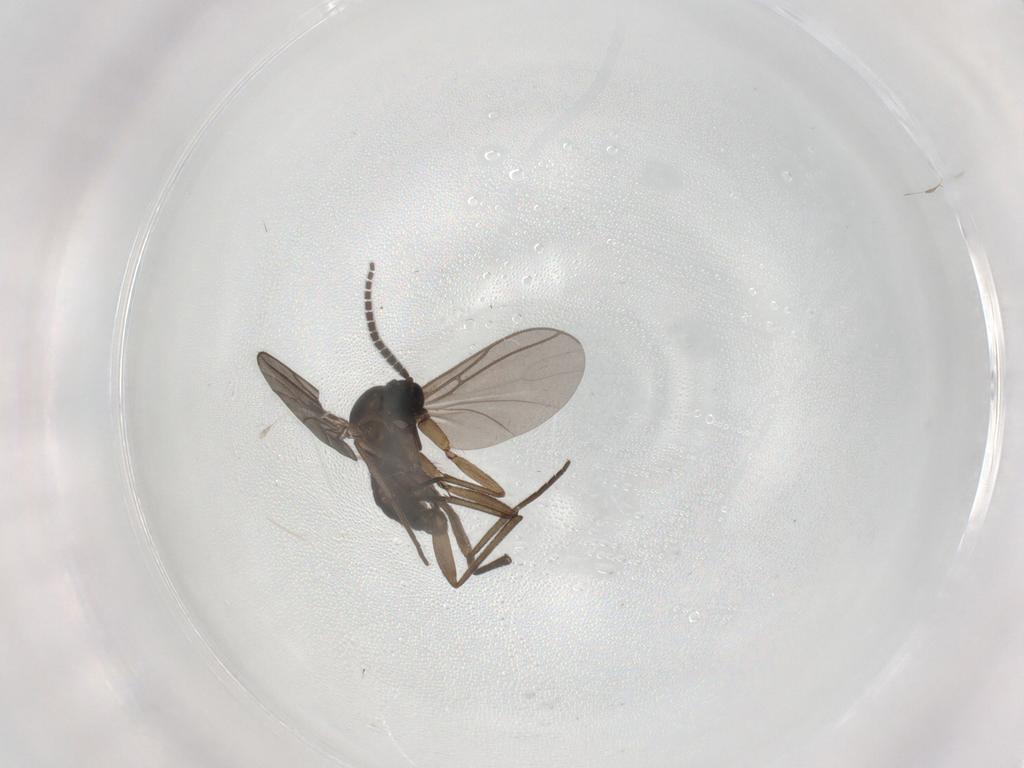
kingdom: Animalia
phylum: Arthropoda
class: Insecta
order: Diptera
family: Sciaridae
